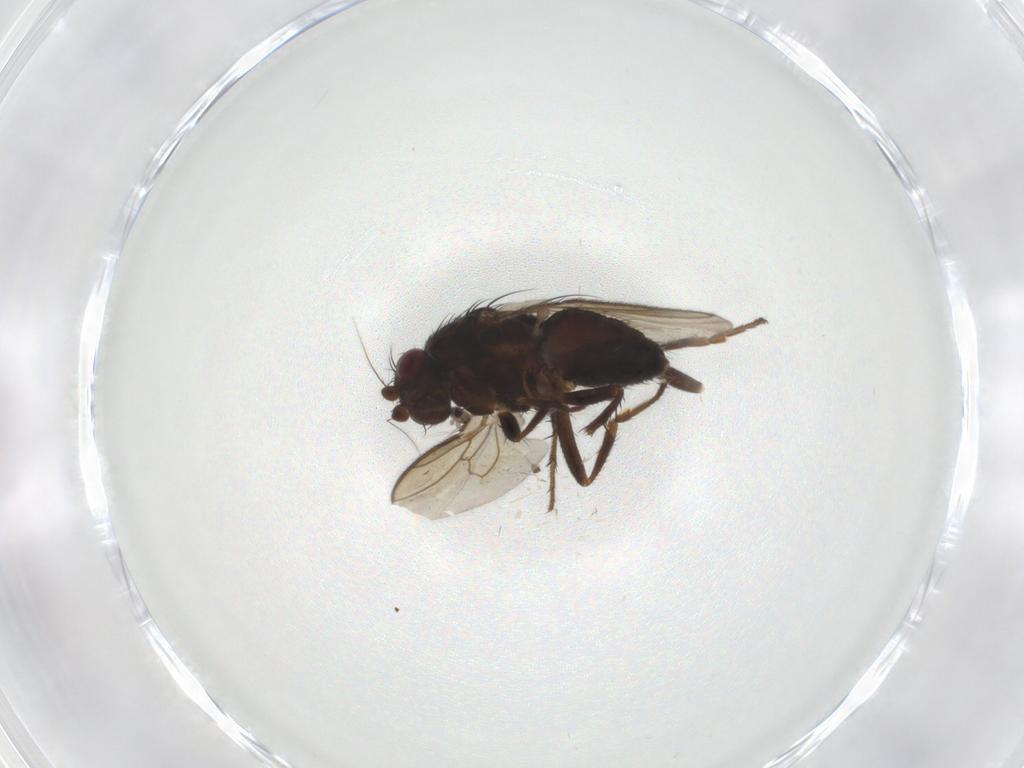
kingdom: Animalia
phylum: Arthropoda
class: Insecta
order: Diptera
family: Sphaeroceridae
